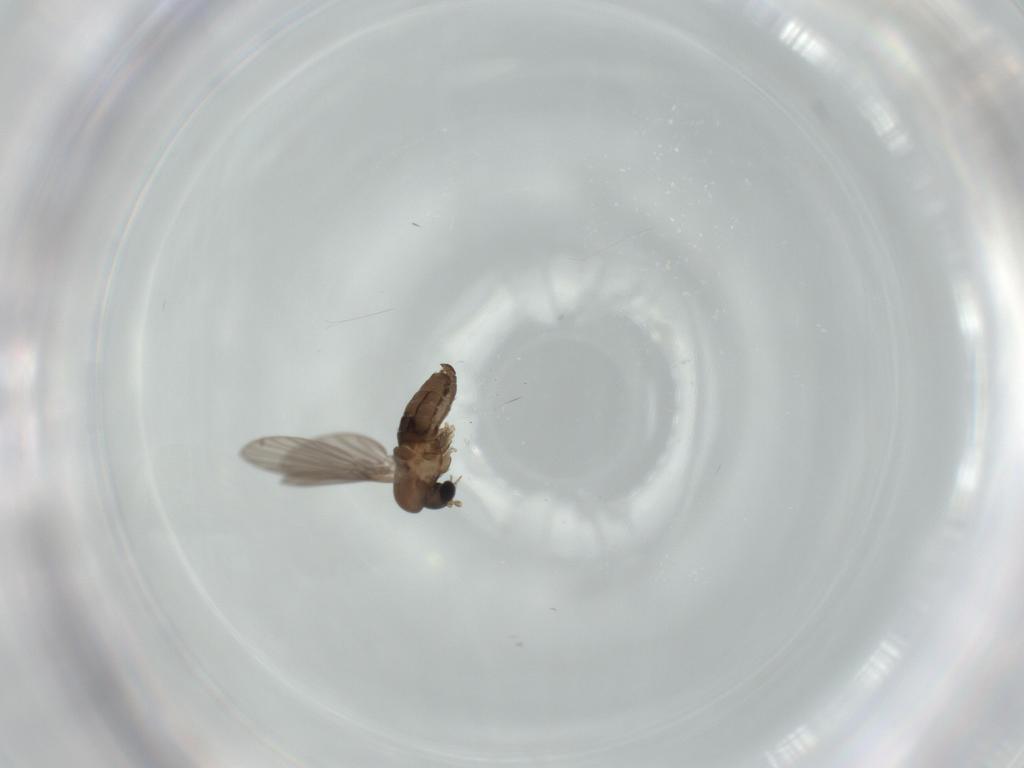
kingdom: Animalia
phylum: Arthropoda
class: Insecta
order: Diptera
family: Psychodidae
